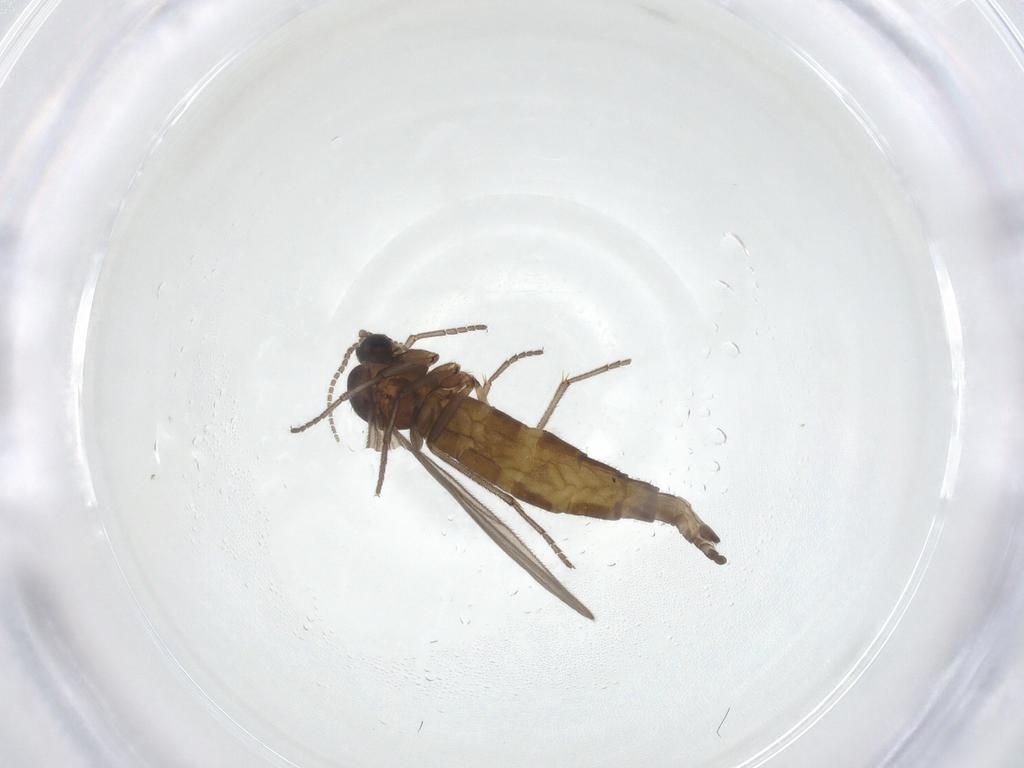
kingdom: Animalia
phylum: Arthropoda
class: Insecta
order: Diptera
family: Sciaridae
